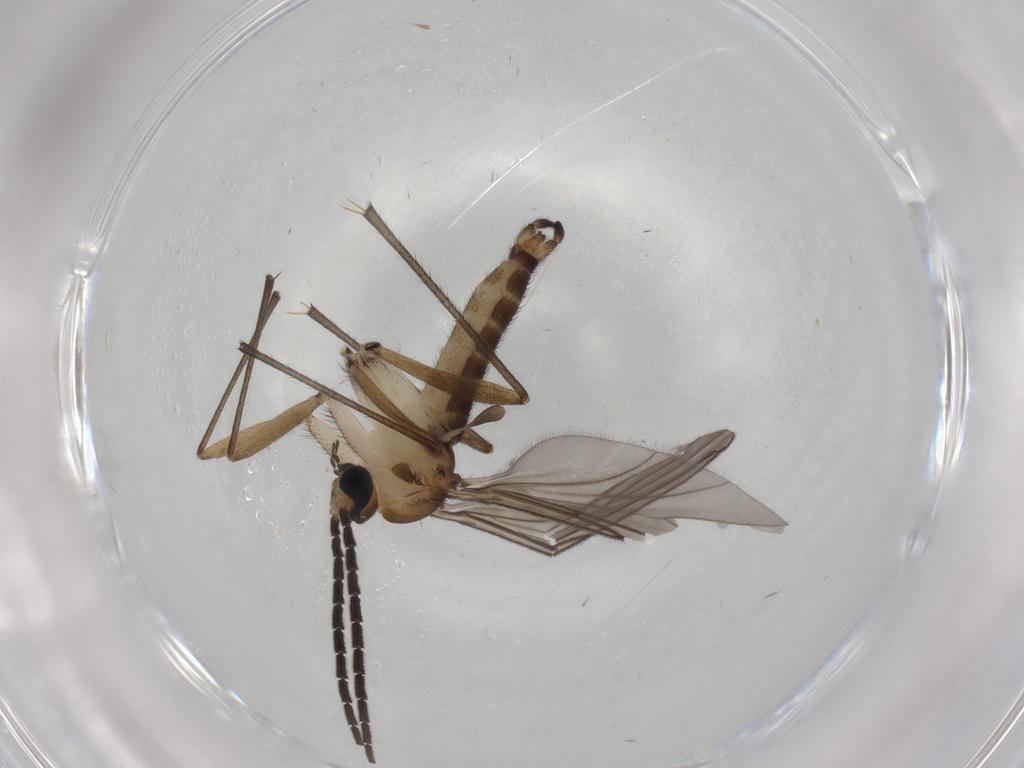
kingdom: Animalia
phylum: Arthropoda
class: Insecta
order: Diptera
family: Sciaridae
